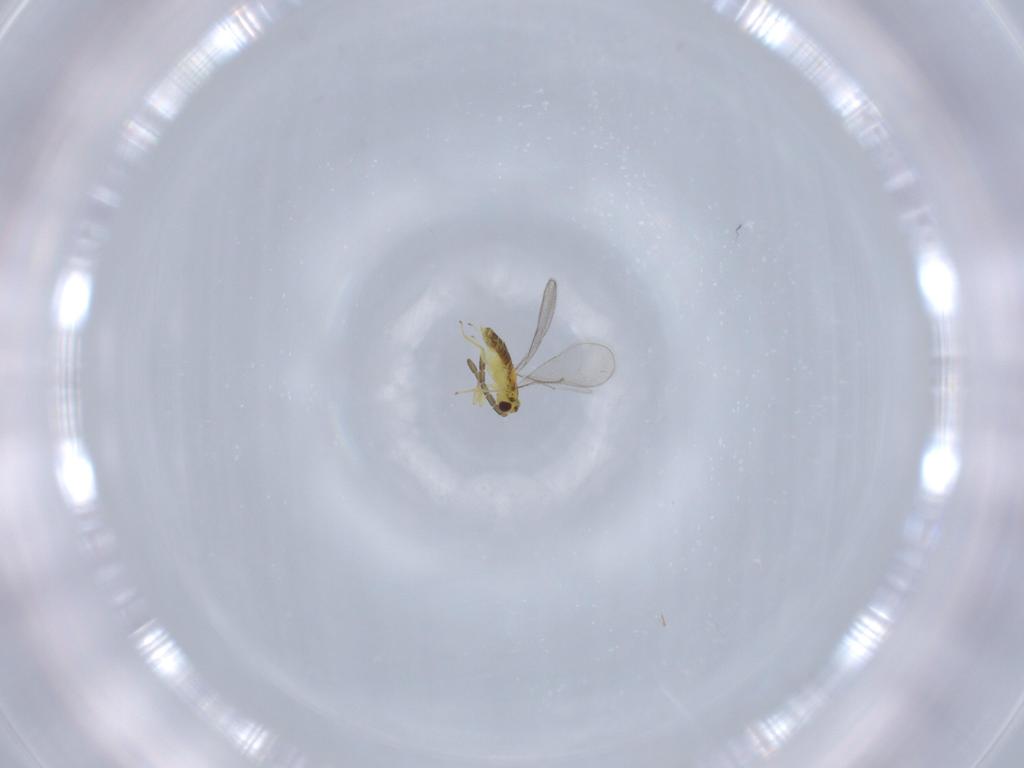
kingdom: Animalia
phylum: Arthropoda
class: Insecta
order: Hymenoptera
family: Aphelinidae
